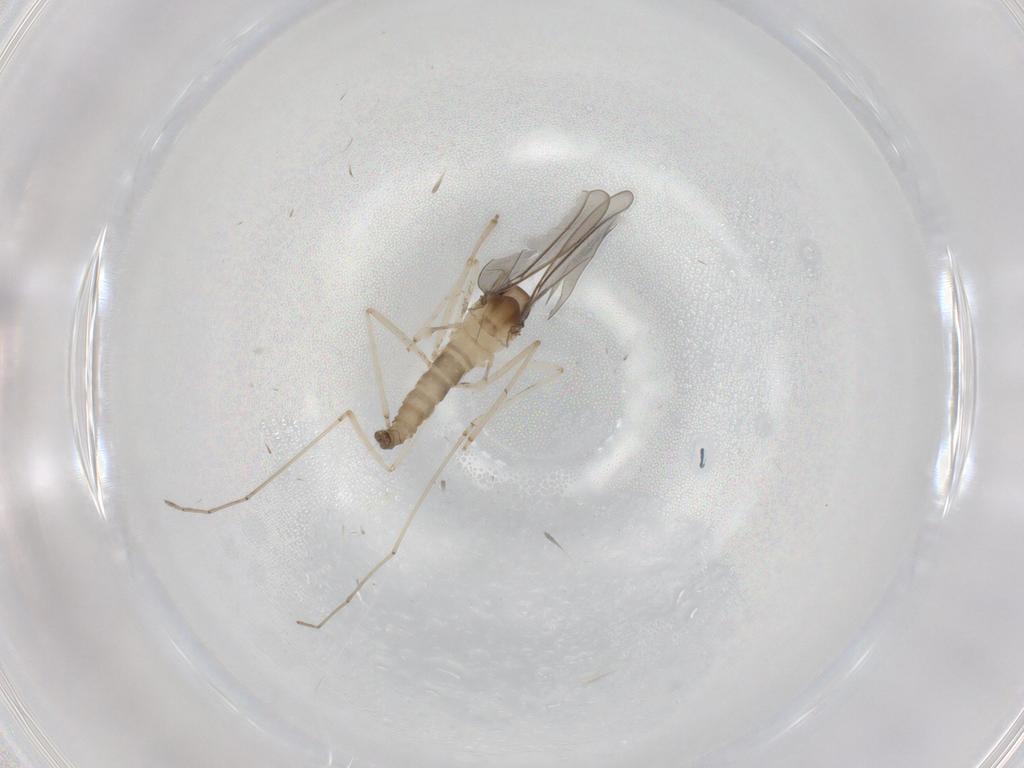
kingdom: Animalia
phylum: Arthropoda
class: Insecta
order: Diptera
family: Cecidomyiidae
